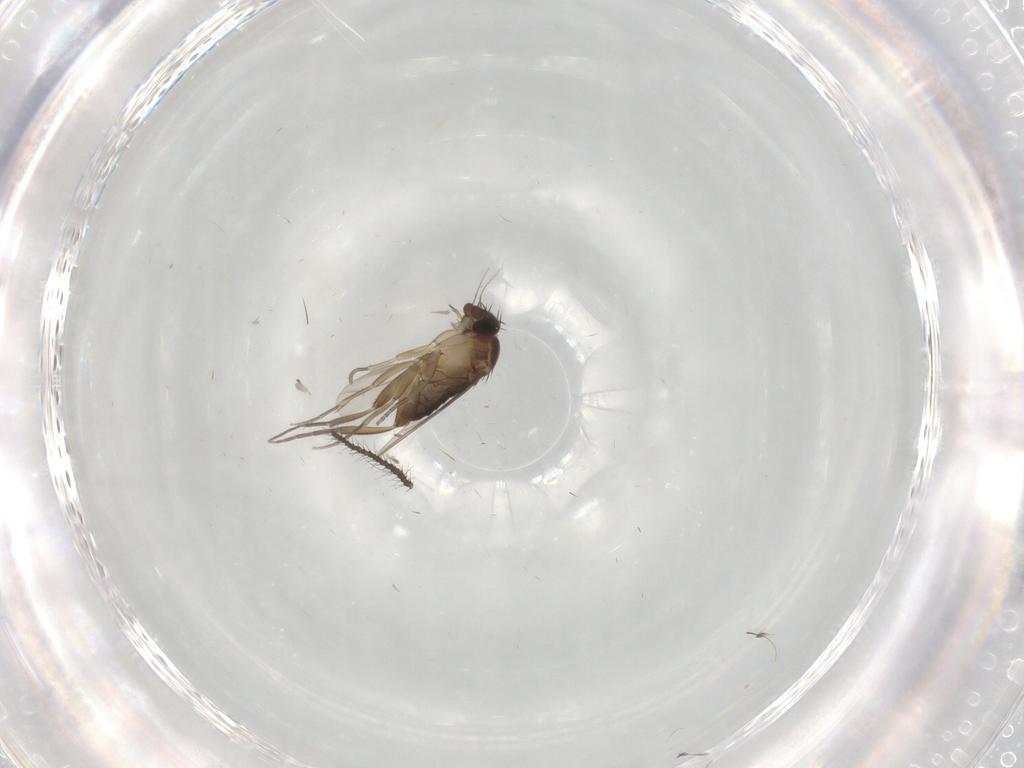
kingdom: Animalia
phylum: Arthropoda
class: Insecta
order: Diptera
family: Phoridae
